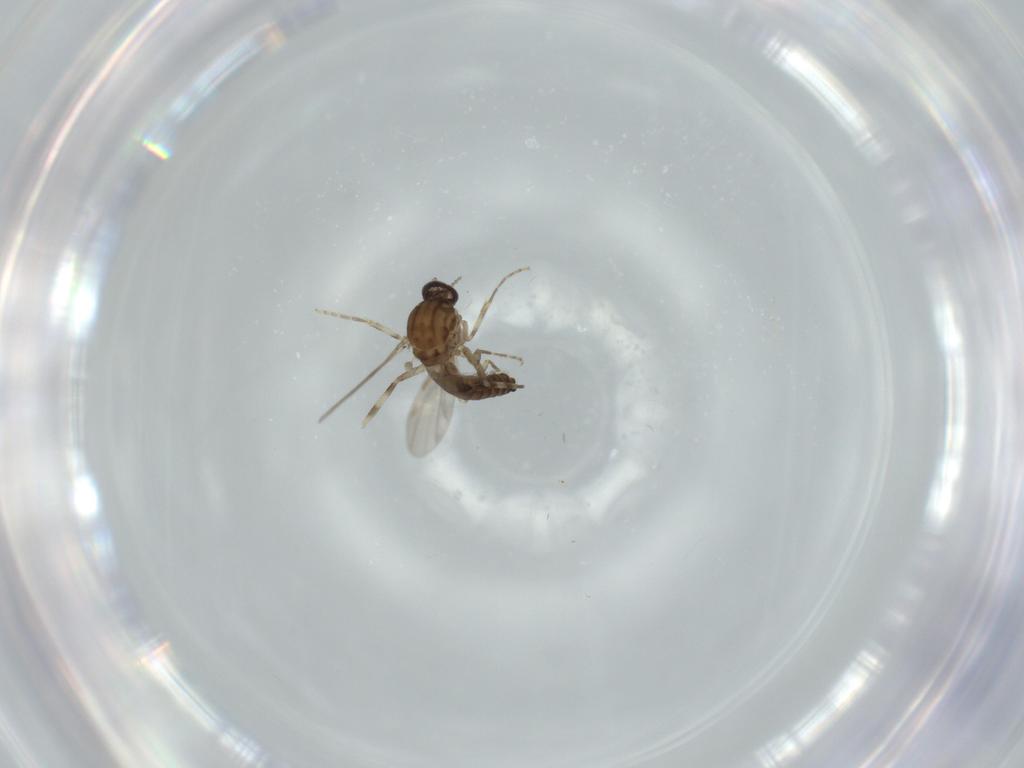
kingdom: Animalia
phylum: Arthropoda
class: Insecta
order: Diptera
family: Ceratopogonidae
